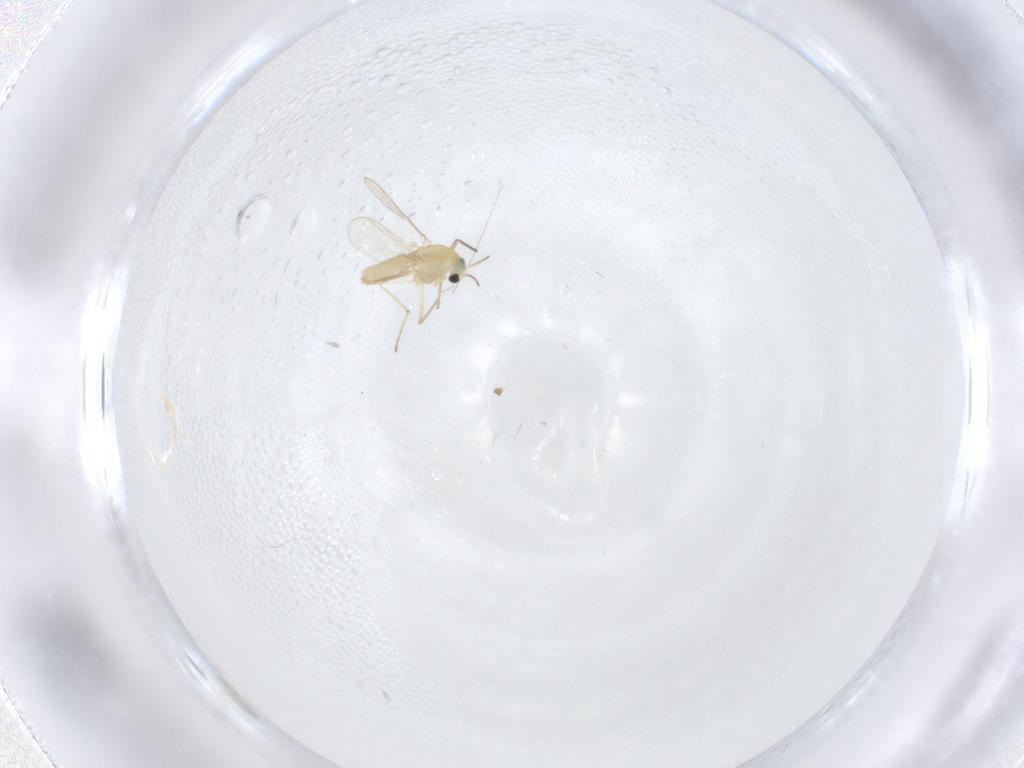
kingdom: Animalia
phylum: Arthropoda
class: Insecta
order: Diptera
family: Chironomidae
